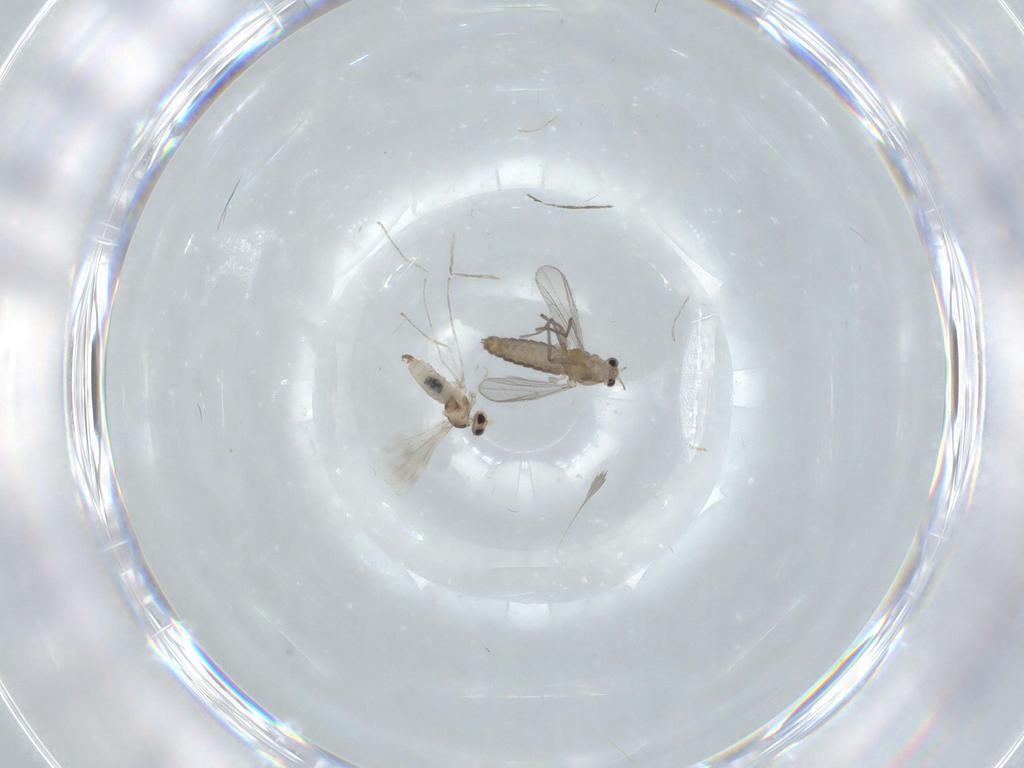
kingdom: Animalia
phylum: Arthropoda
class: Insecta
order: Diptera
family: Chironomidae
